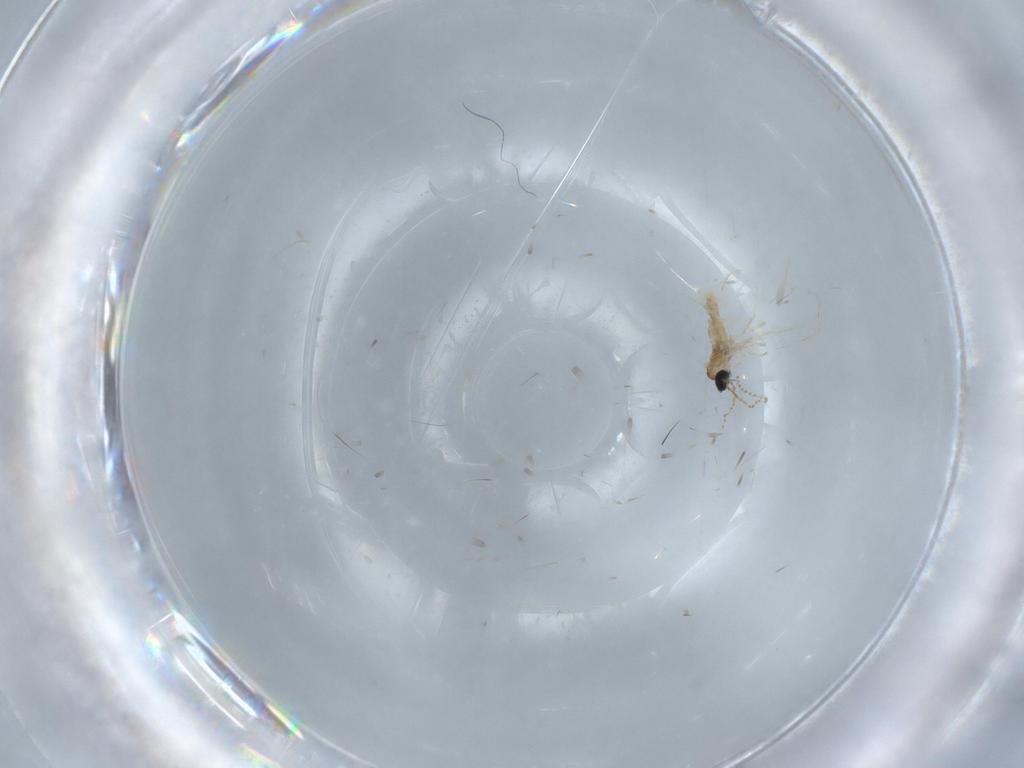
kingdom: Animalia
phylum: Arthropoda
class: Insecta
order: Diptera
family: Cecidomyiidae
